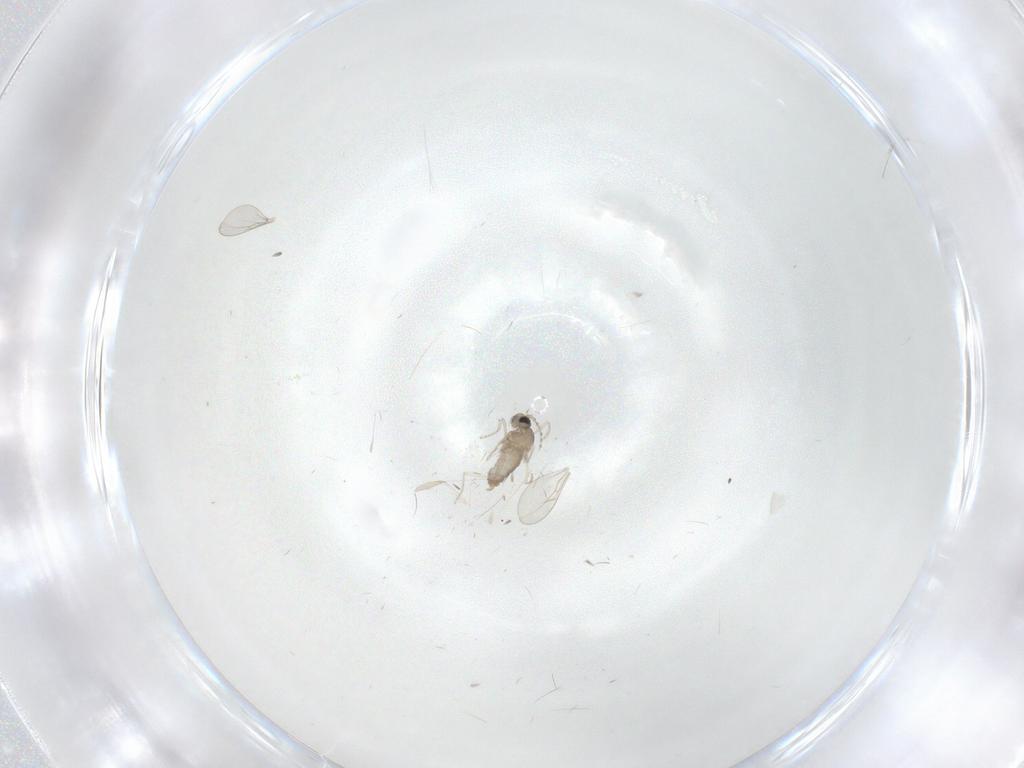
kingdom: Animalia
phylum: Arthropoda
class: Insecta
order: Diptera
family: Cecidomyiidae
